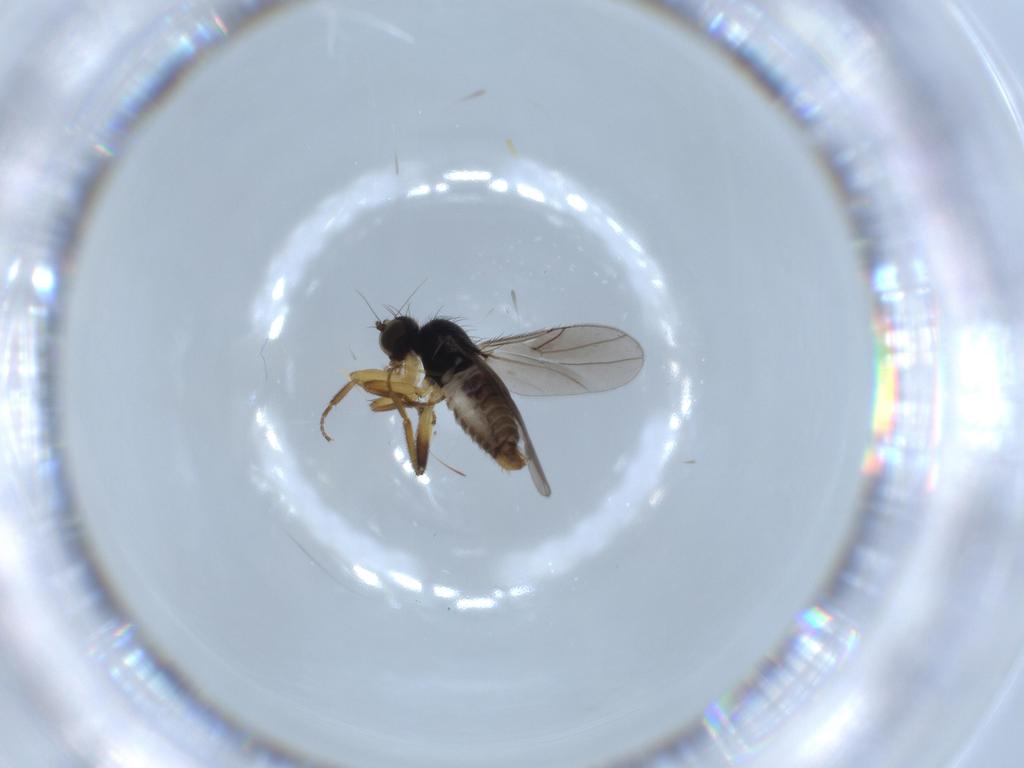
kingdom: Animalia
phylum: Arthropoda
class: Insecta
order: Diptera
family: Hybotidae
